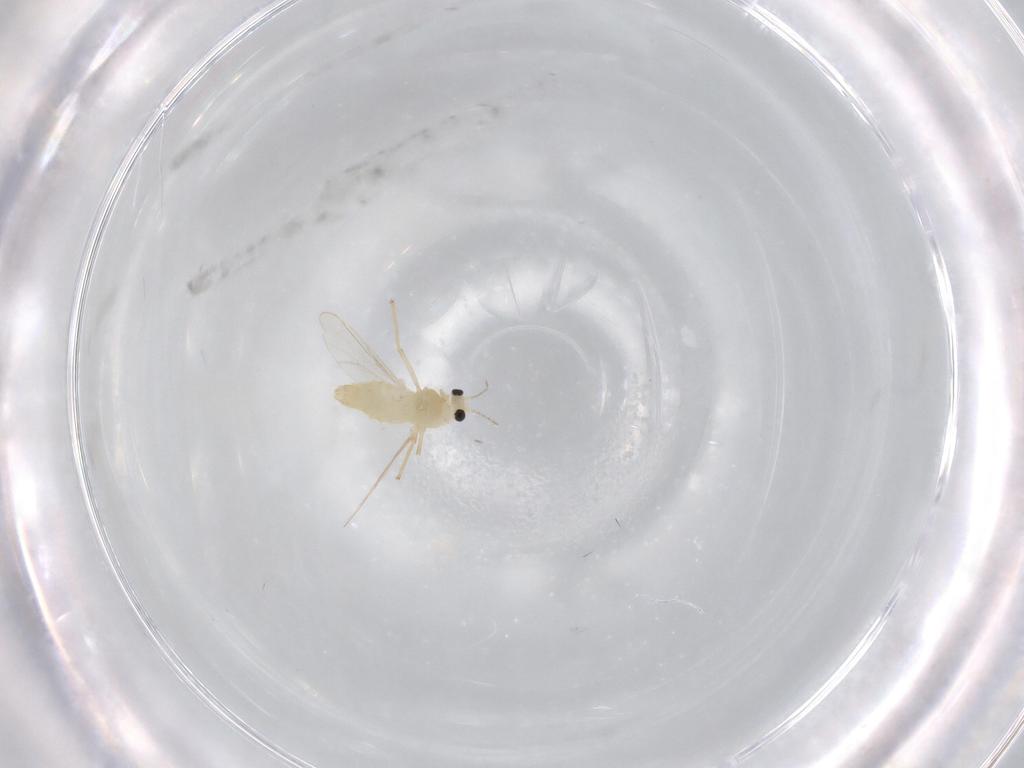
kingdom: Animalia
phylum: Arthropoda
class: Insecta
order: Diptera
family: Chironomidae
